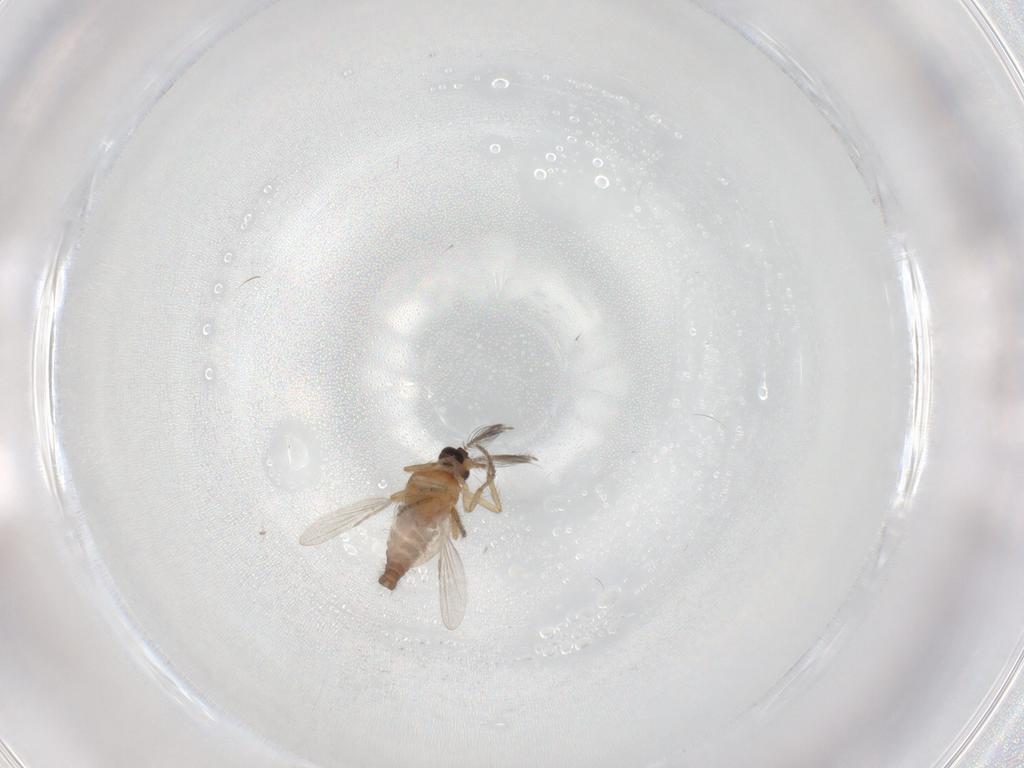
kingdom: Animalia
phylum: Arthropoda
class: Insecta
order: Diptera
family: Ceratopogonidae
